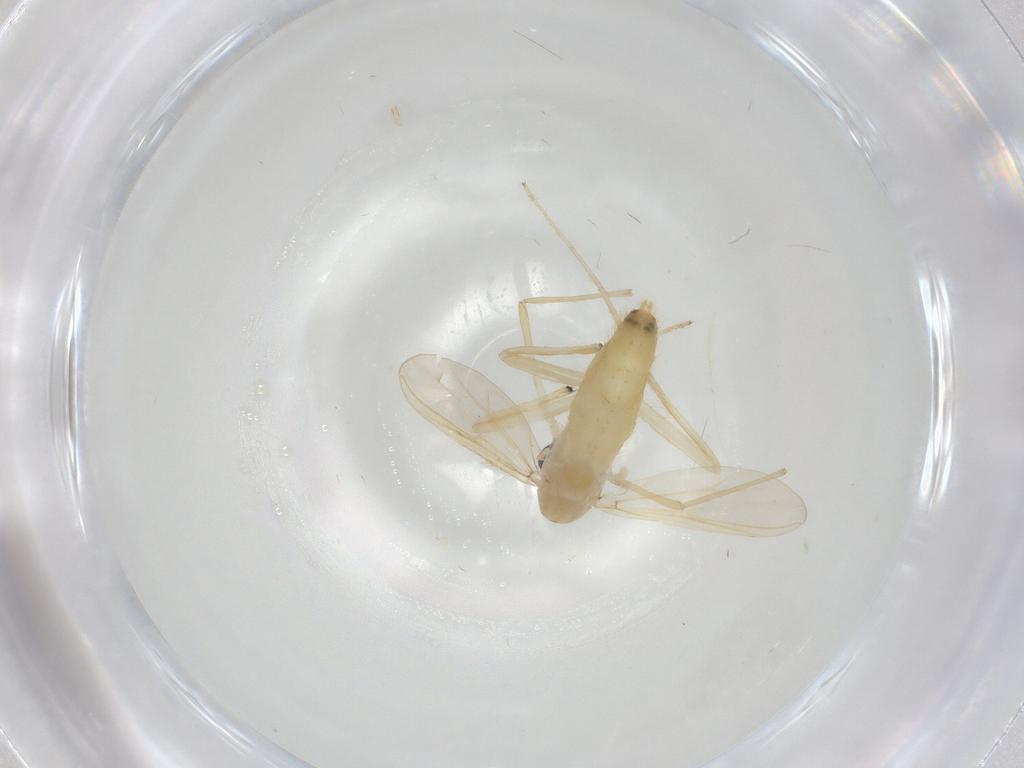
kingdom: Animalia
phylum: Arthropoda
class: Insecta
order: Diptera
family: Chironomidae
